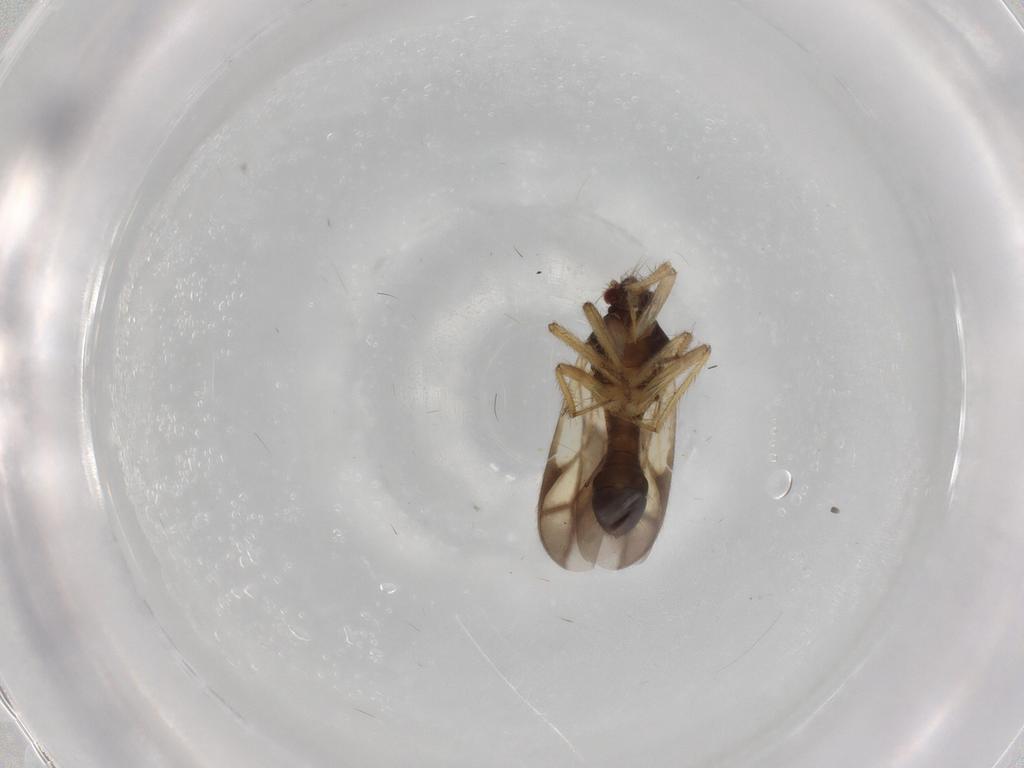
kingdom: Animalia
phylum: Arthropoda
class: Insecta
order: Hemiptera
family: Ceratocombidae
